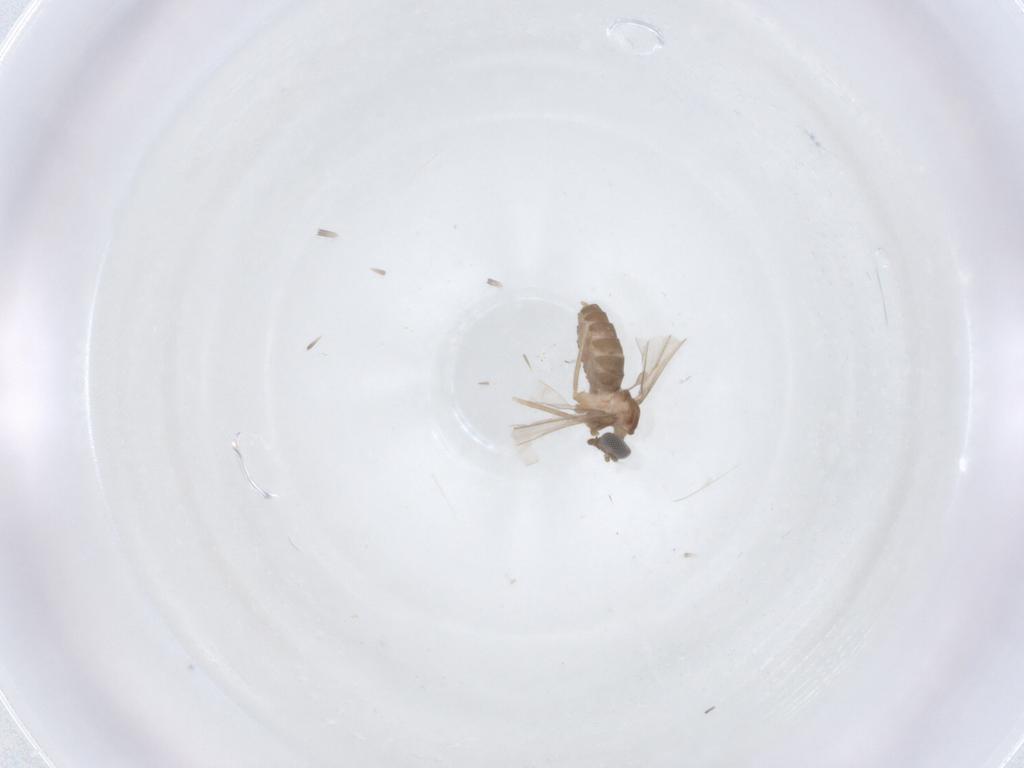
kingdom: Animalia
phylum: Arthropoda
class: Insecta
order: Diptera
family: Cecidomyiidae
